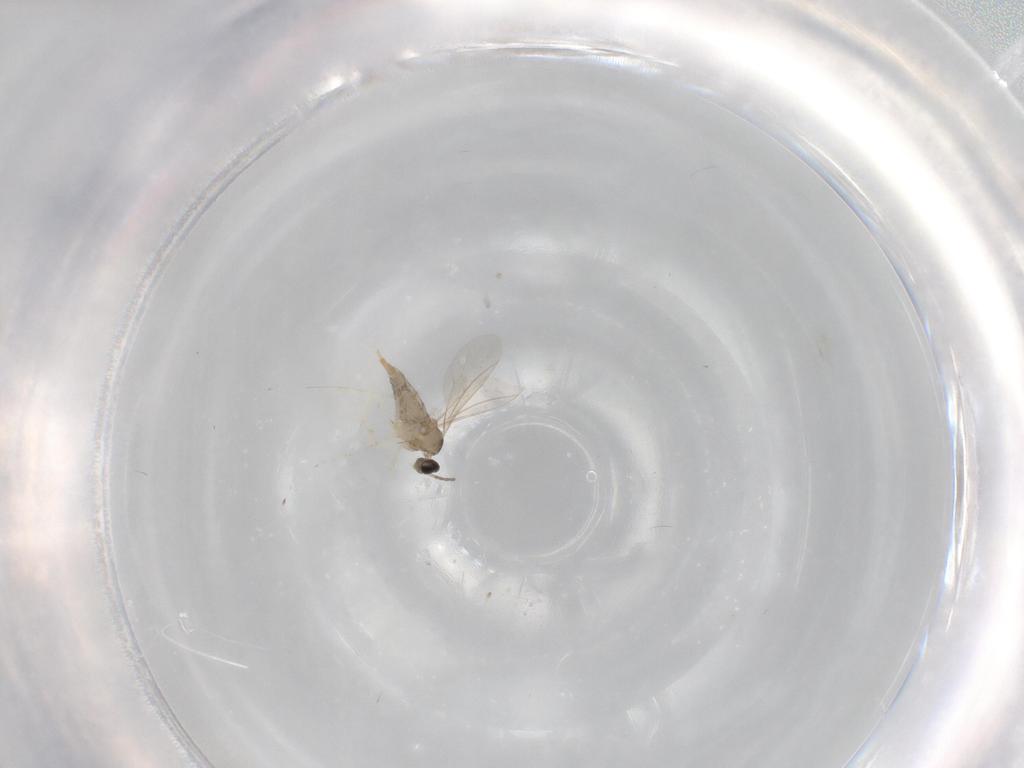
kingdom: Animalia
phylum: Arthropoda
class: Insecta
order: Diptera
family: Cecidomyiidae
